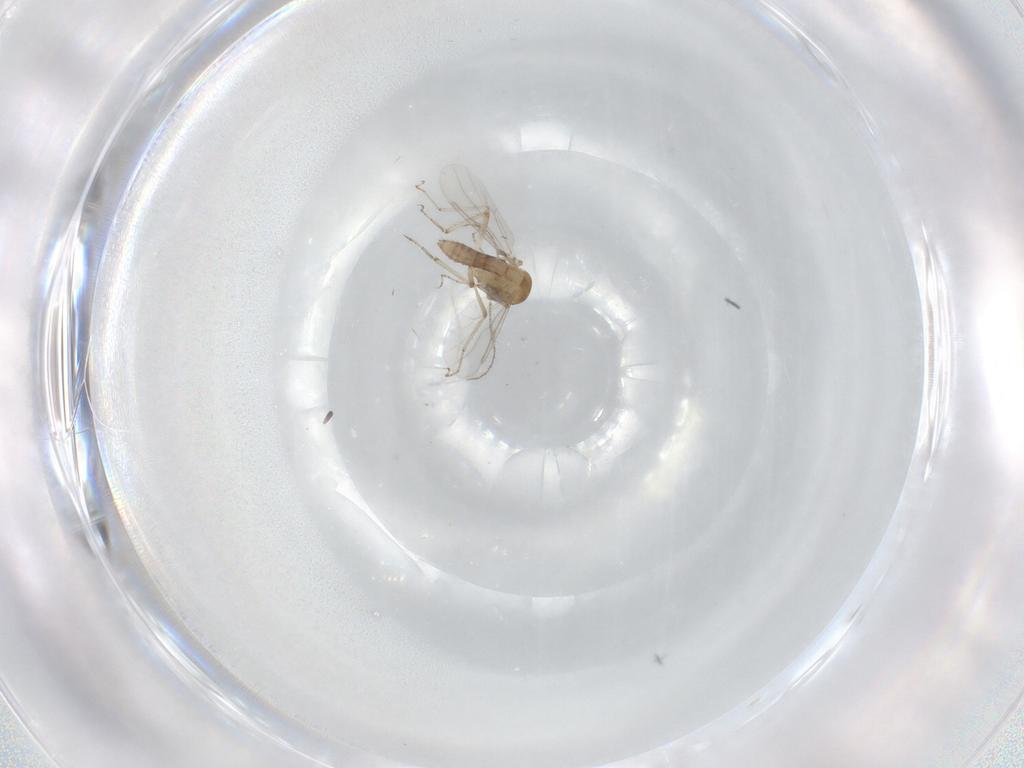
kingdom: Animalia
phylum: Arthropoda
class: Insecta
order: Diptera
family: Ceratopogonidae
